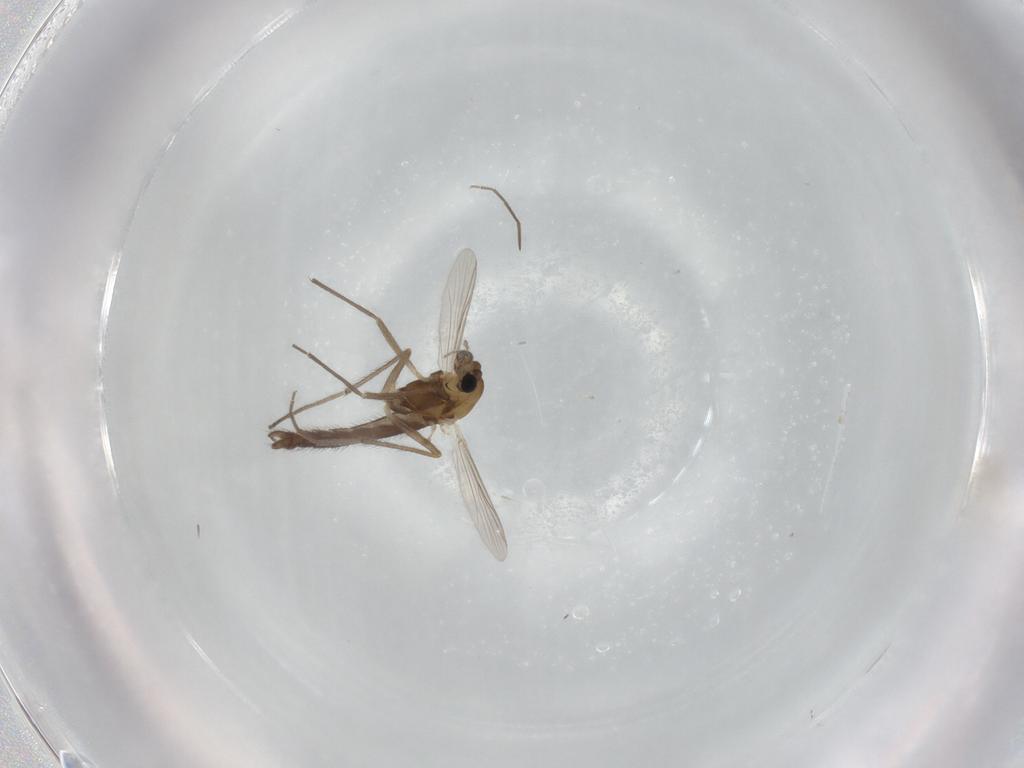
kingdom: Animalia
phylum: Arthropoda
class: Insecta
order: Diptera
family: Chironomidae
